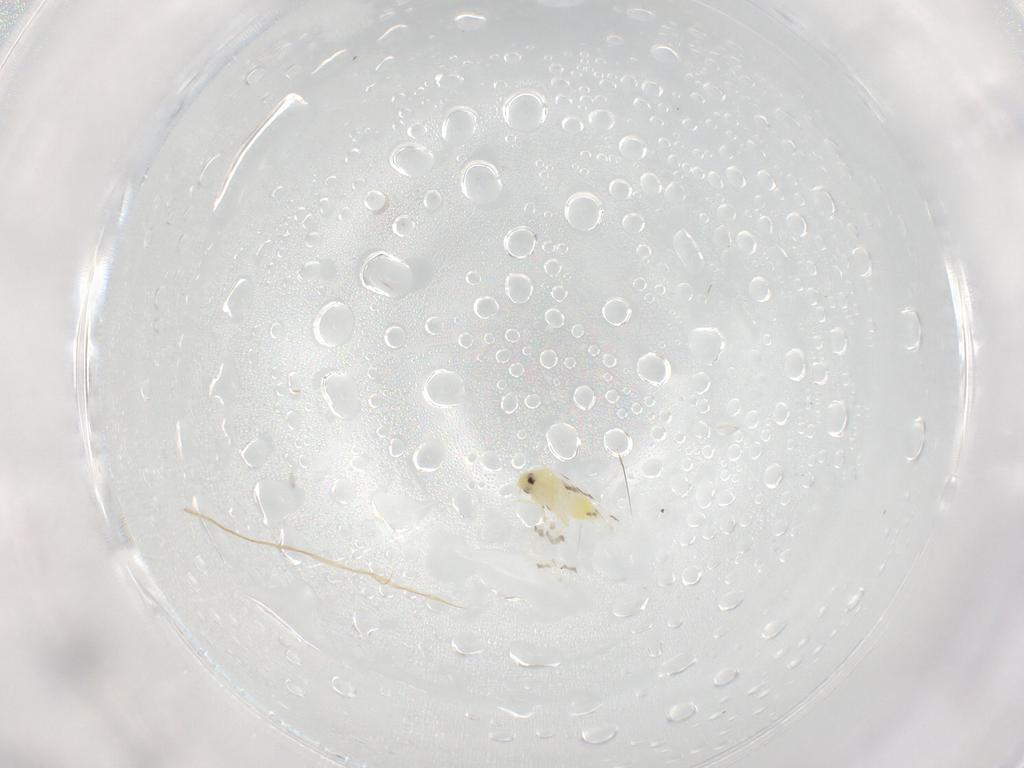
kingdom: Animalia
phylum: Arthropoda
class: Insecta
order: Hemiptera
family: Aleyrodidae
